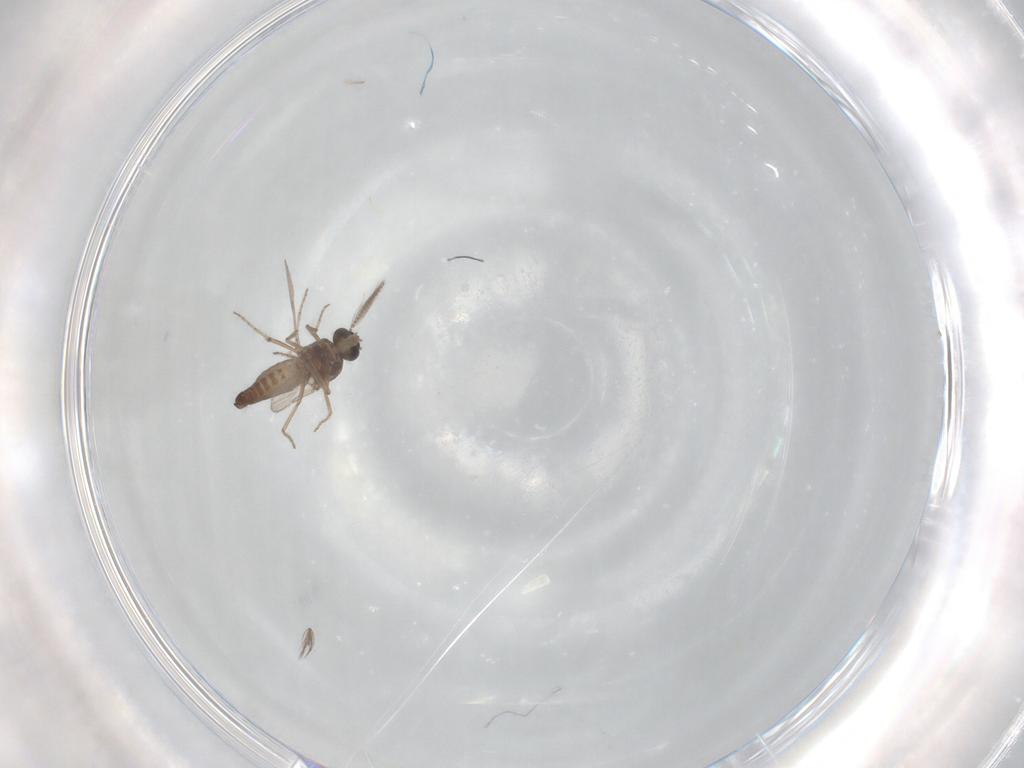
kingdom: Animalia
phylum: Arthropoda
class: Insecta
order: Diptera
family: Ceratopogonidae
